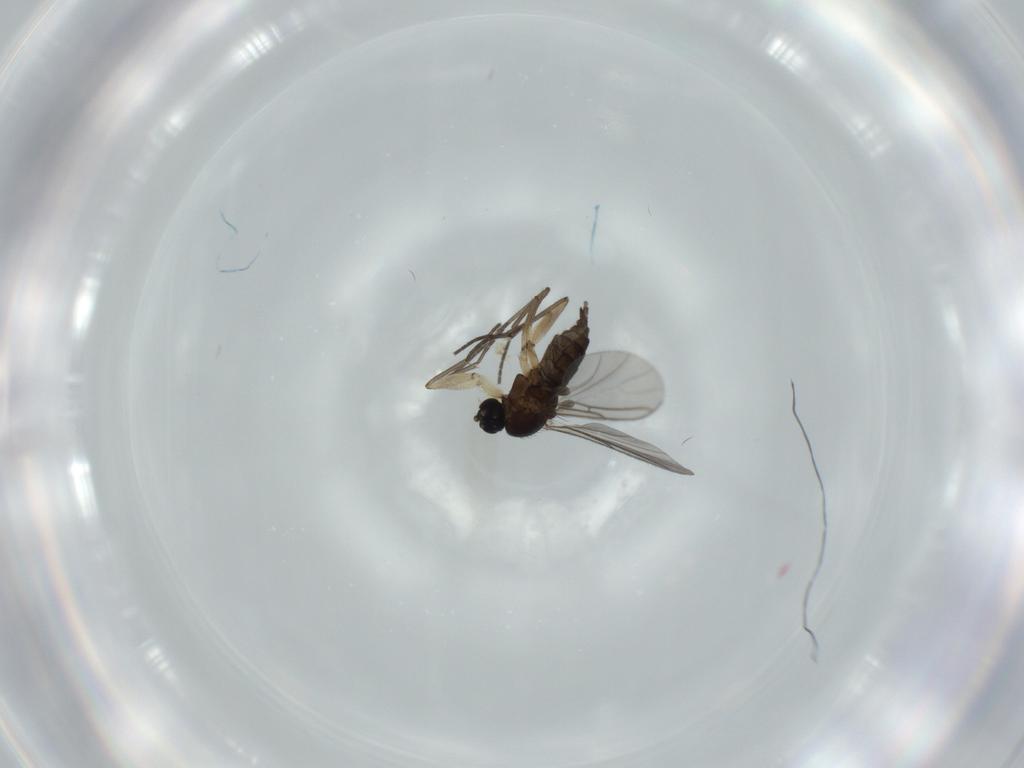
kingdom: Animalia
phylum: Arthropoda
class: Insecta
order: Diptera
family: Sciaridae
